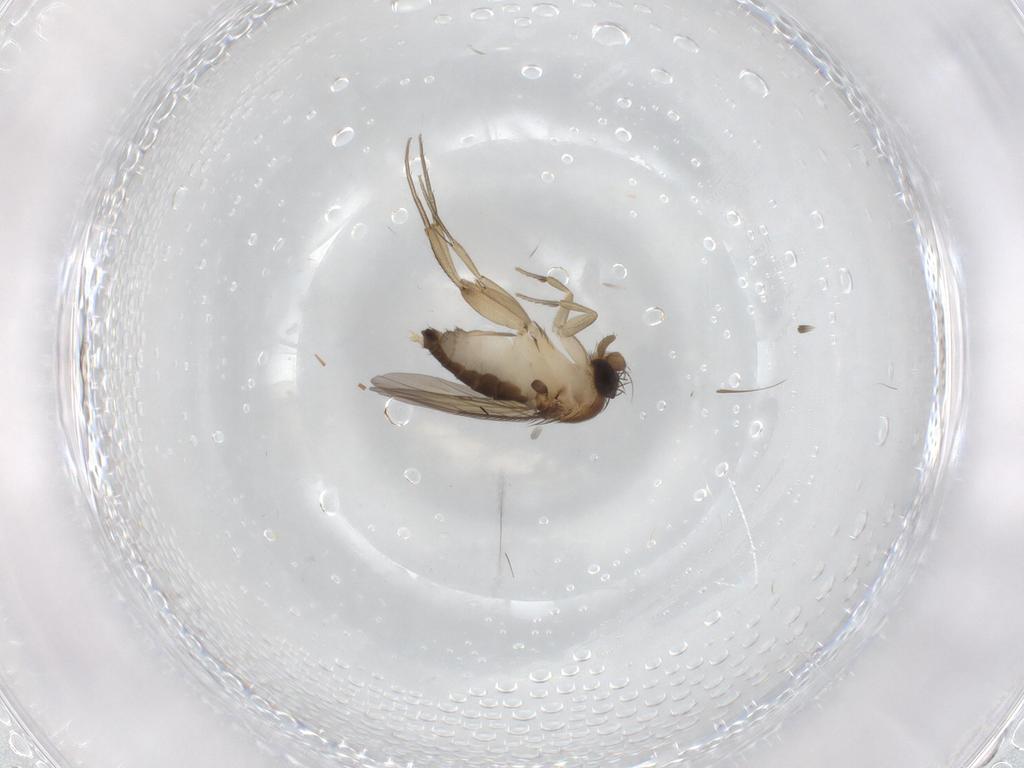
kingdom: Animalia
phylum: Arthropoda
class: Insecta
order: Diptera
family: Phoridae
